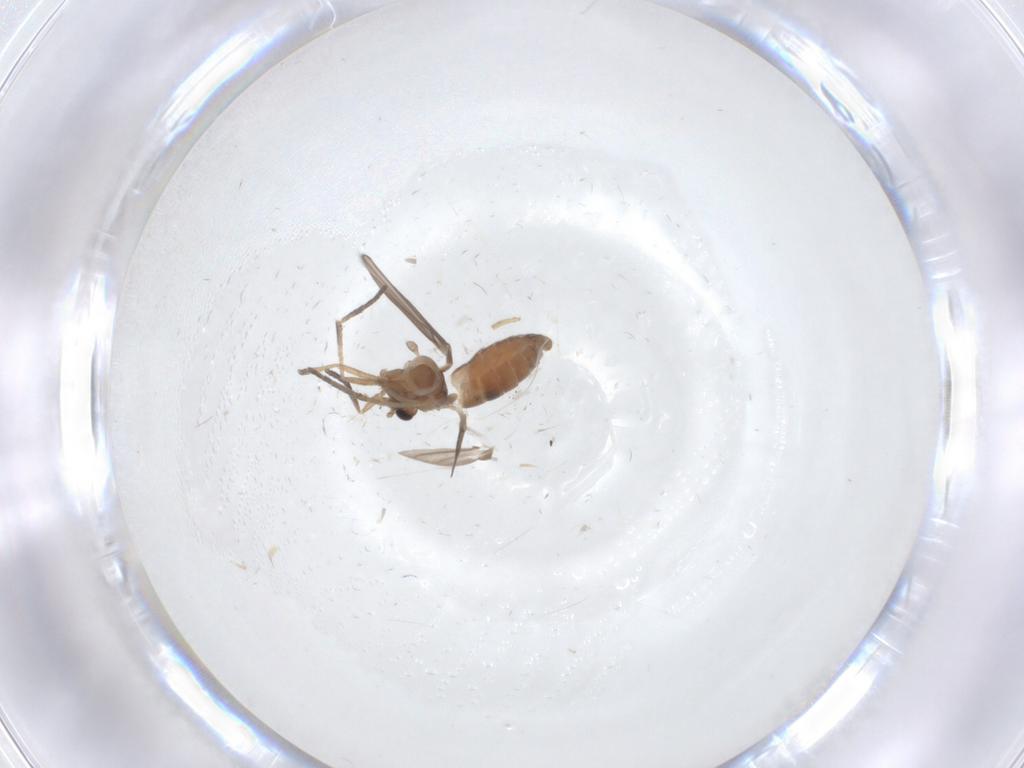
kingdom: Animalia
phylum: Arthropoda
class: Insecta
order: Diptera
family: Psychodidae
